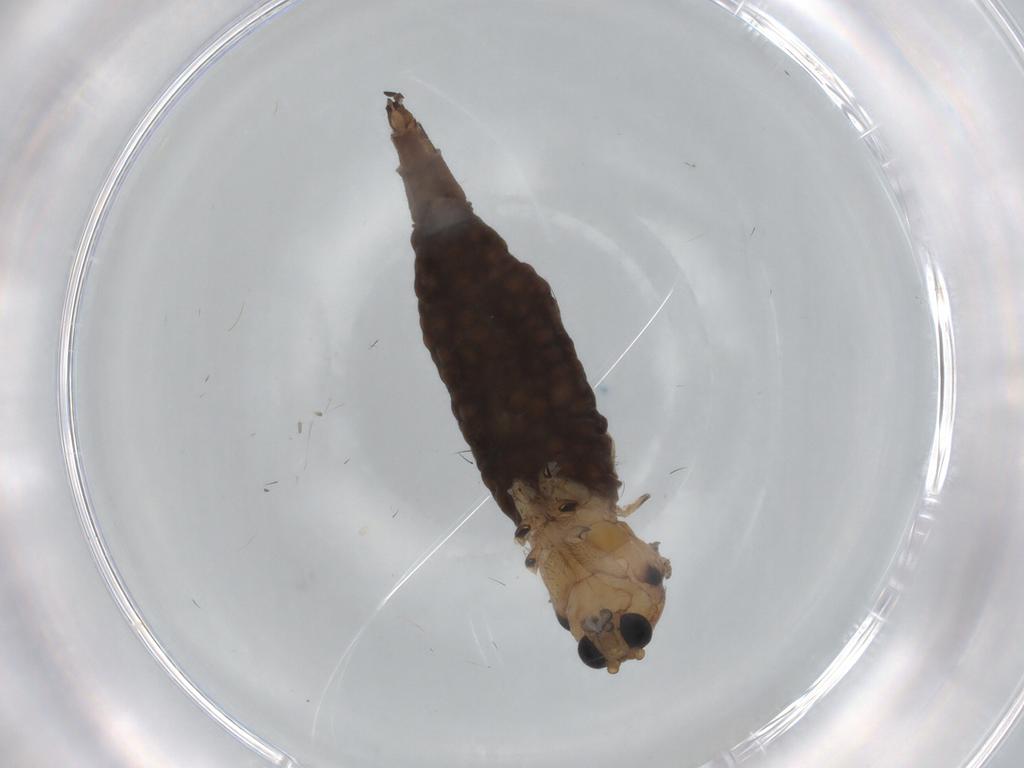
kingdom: Animalia
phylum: Arthropoda
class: Insecta
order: Diptera
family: Sciaridae
